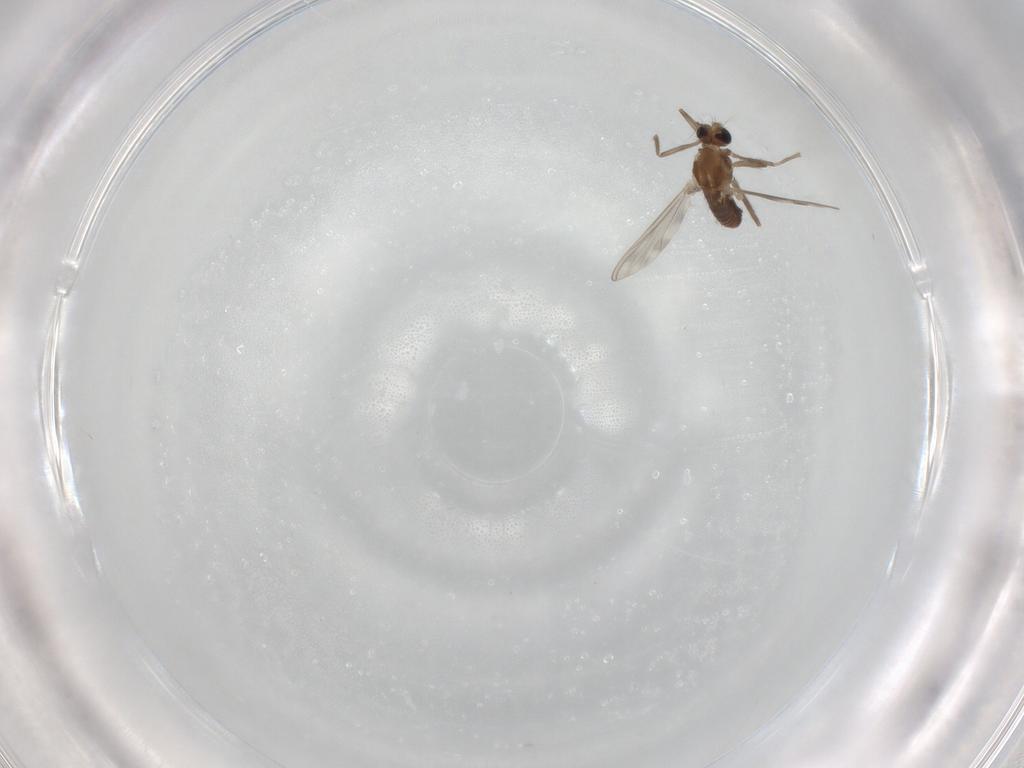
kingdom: Animalia
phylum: Arthropoda
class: Insecta
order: Diptera
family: Chironomidae
